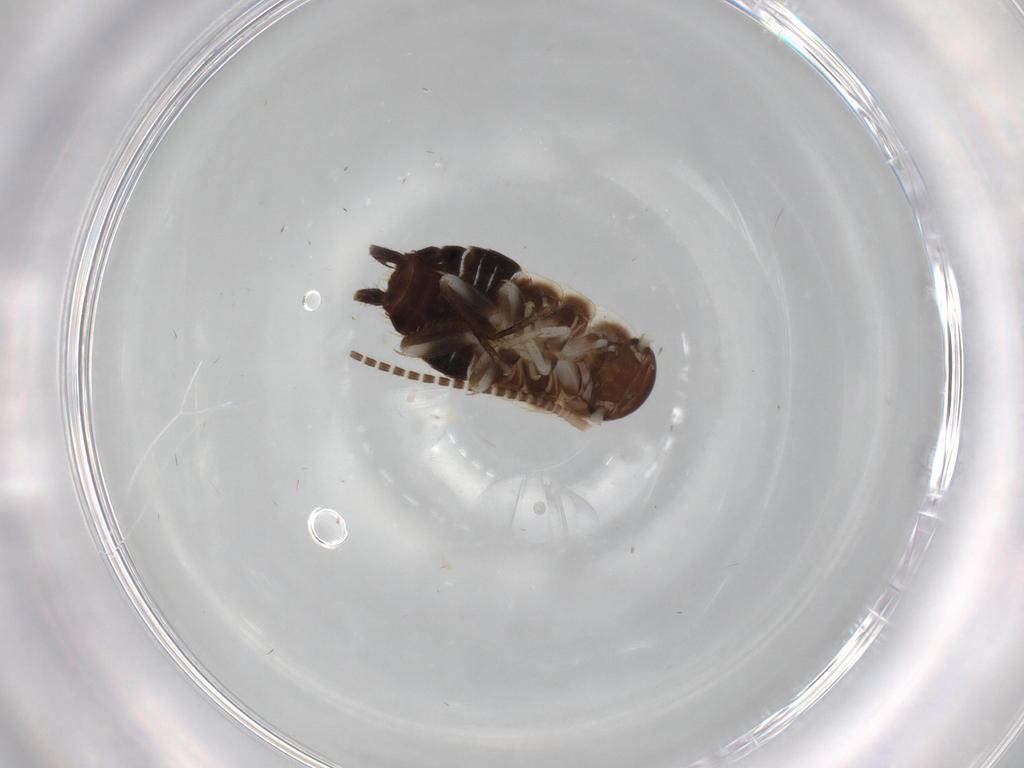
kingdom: Animalia
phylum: Arthropoda
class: Insecta
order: Blattodea
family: Ectobiidae
